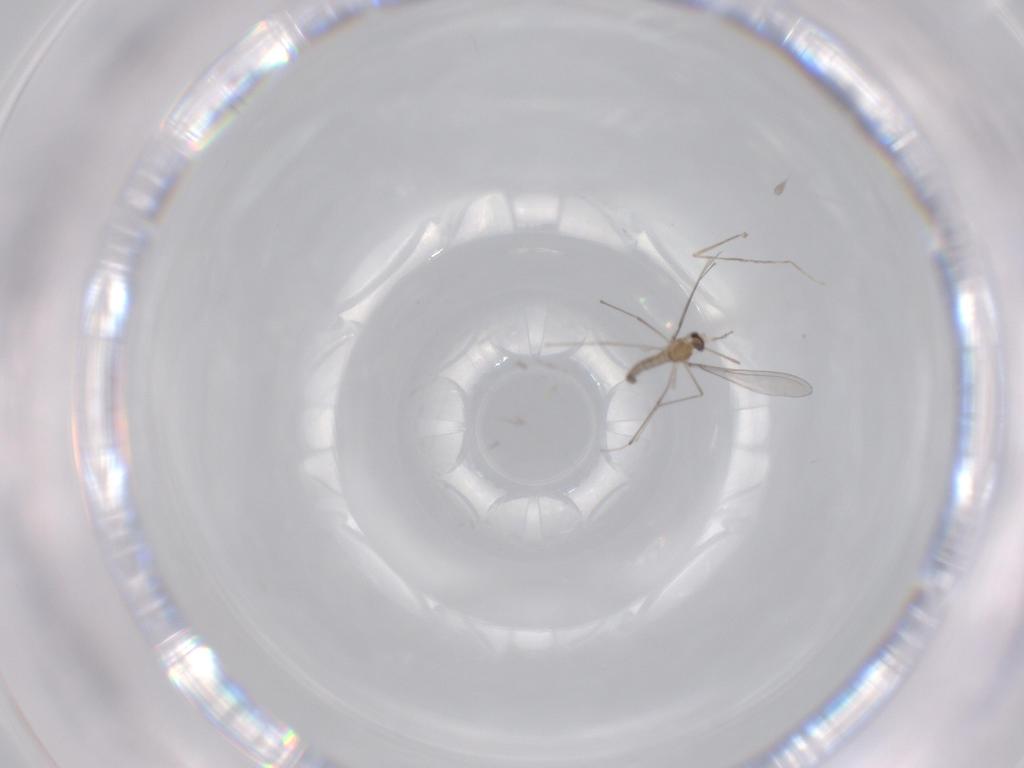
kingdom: Animalia
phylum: Arthropoda
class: Insecta
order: Diptera
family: Cecidomyiidae
